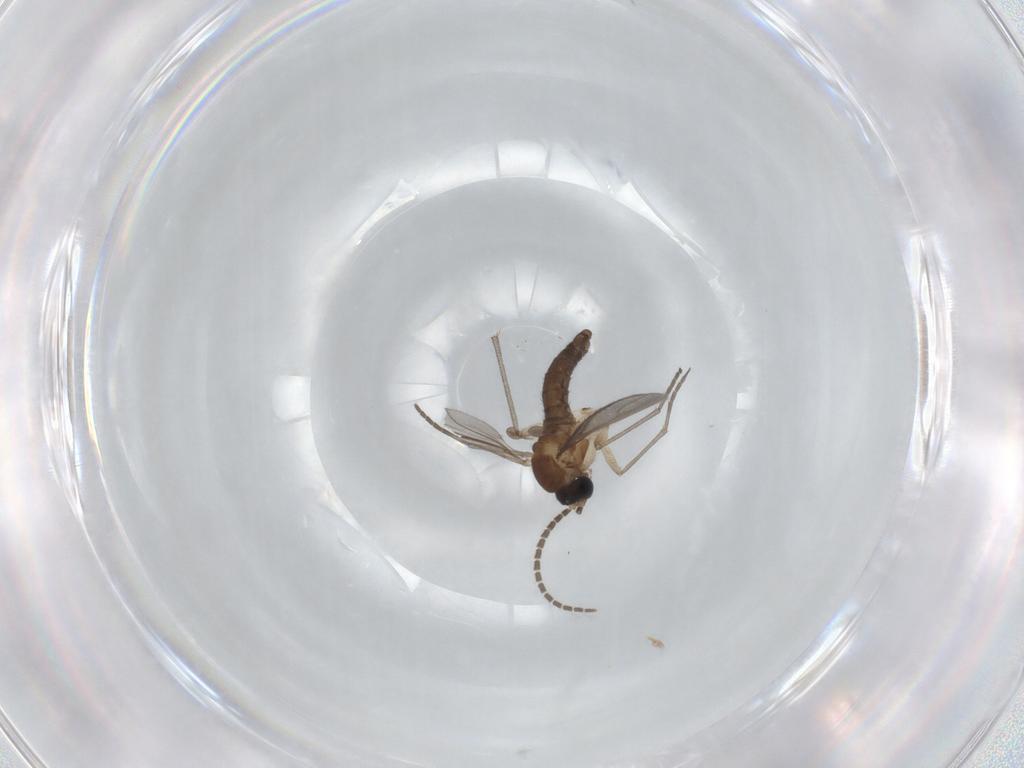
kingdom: Animalia
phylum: Arthropoda
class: Insecta
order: Diptera
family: Sciaridae
